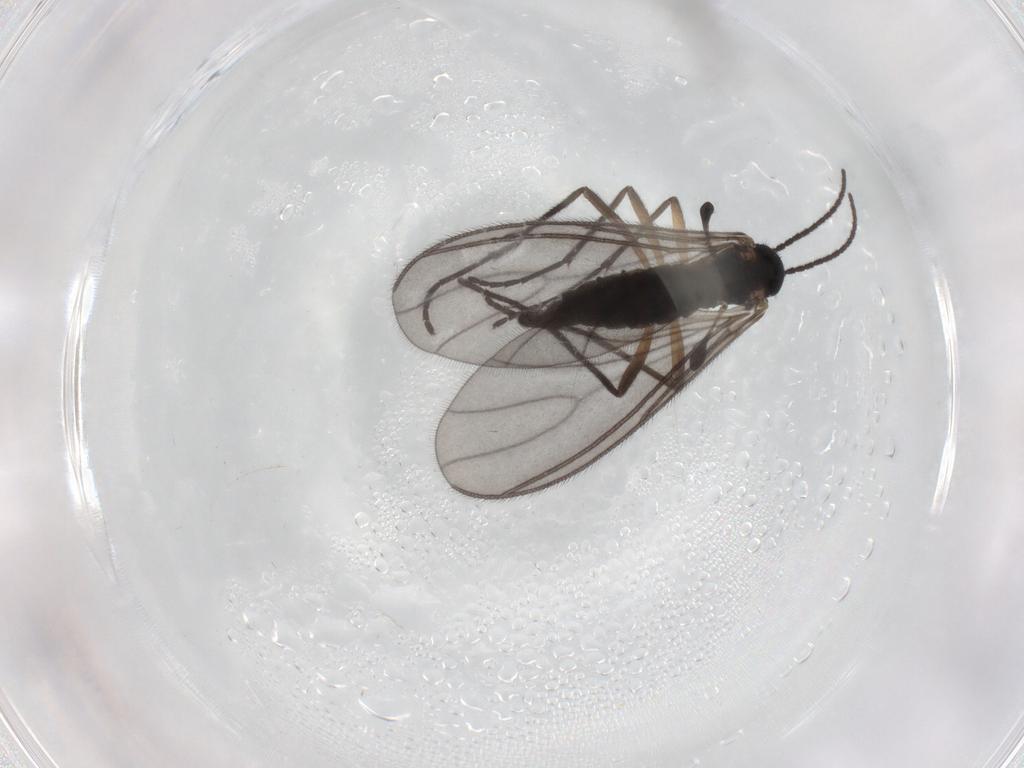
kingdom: Animalia
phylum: Arthropoda
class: Insecta
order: Diptera
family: Sciaridae
